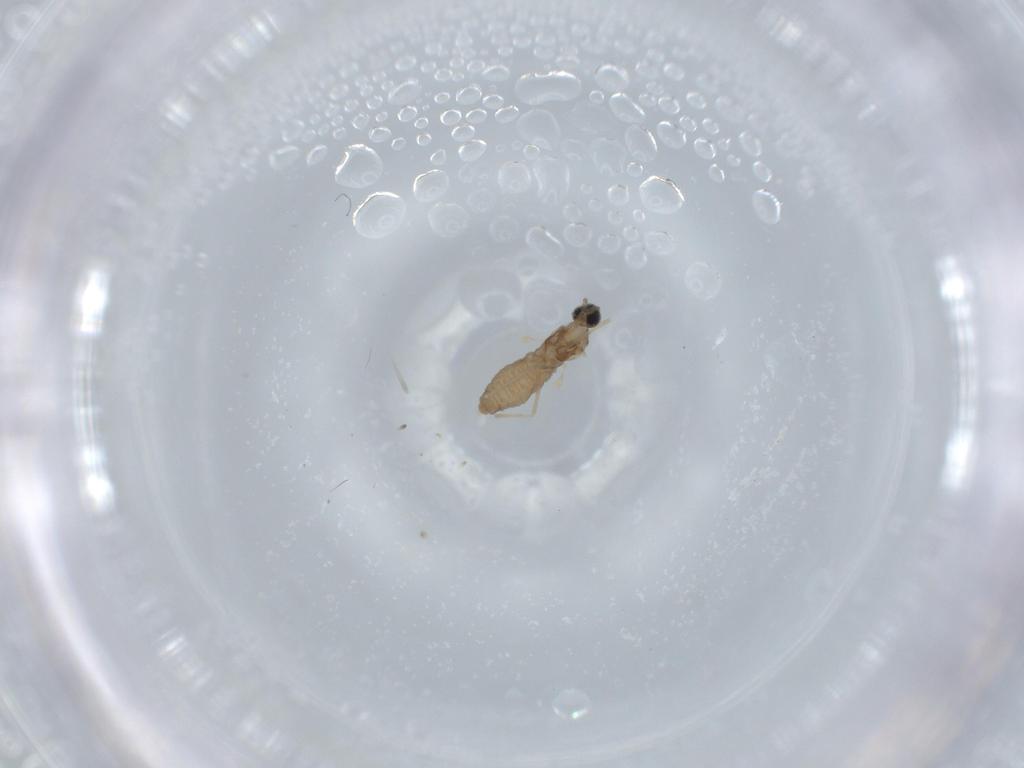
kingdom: Animalia
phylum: Arthropoda
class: Insecta
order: Diptera
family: Cecidomyiidae
